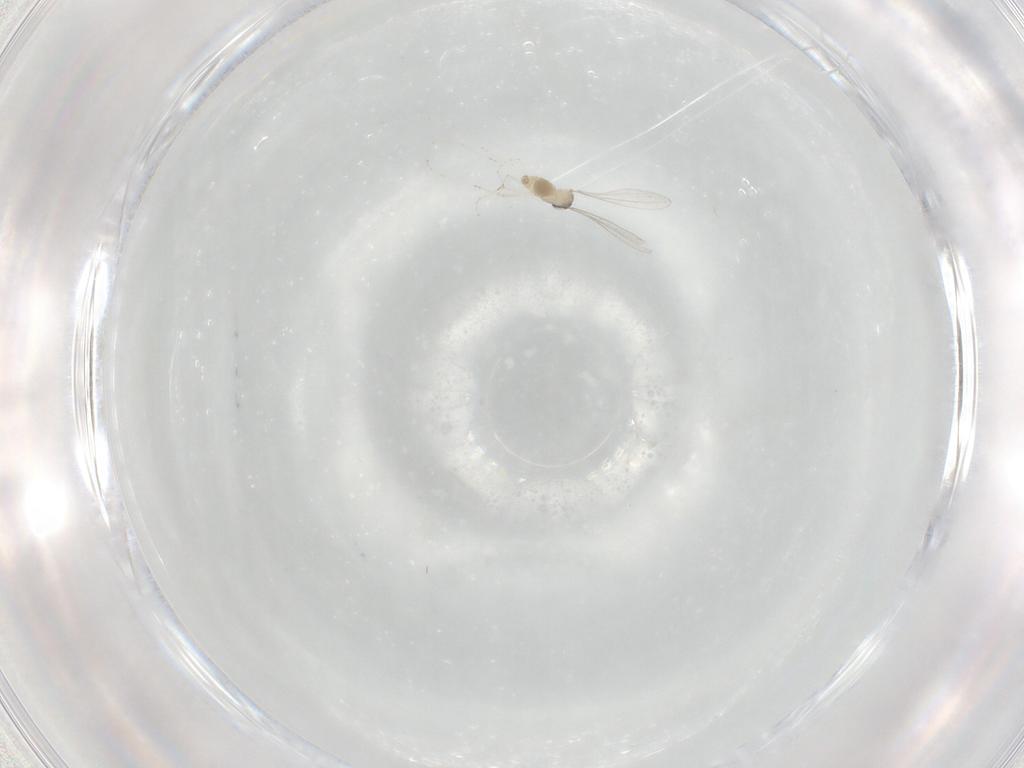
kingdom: Animalia
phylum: Arthropoda
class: Insecta
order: Diptera
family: Cecidomyiidae
